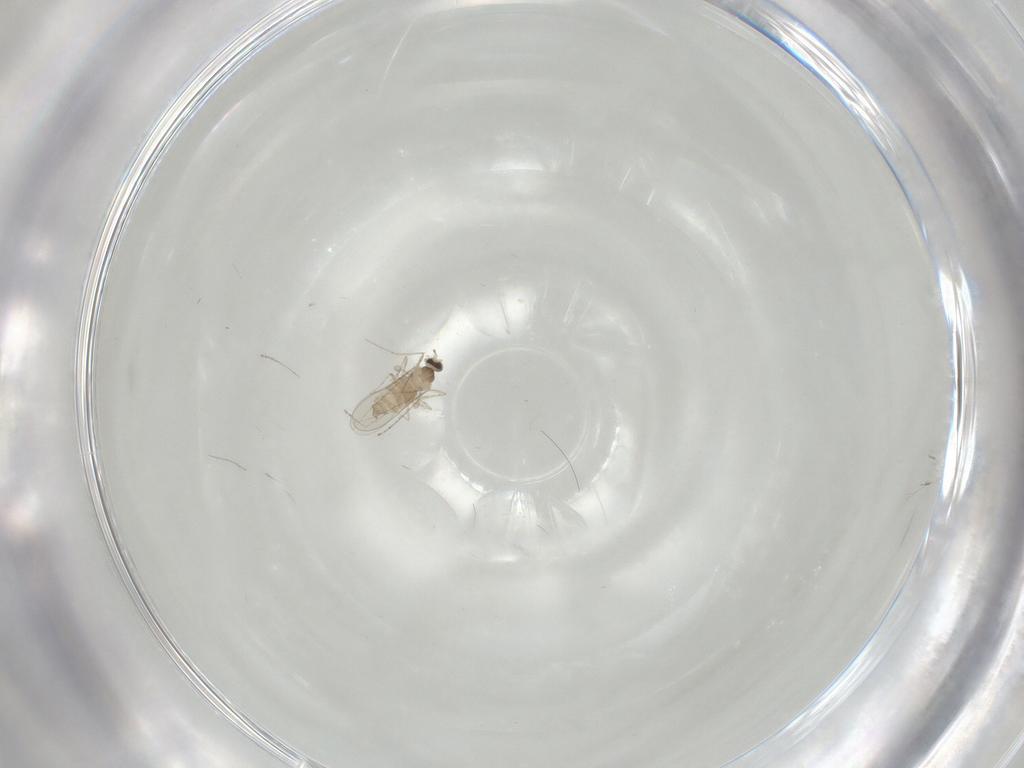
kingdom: Animalia
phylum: Arthropoda
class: Insecta
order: Diptera
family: Cecidomyiidae
